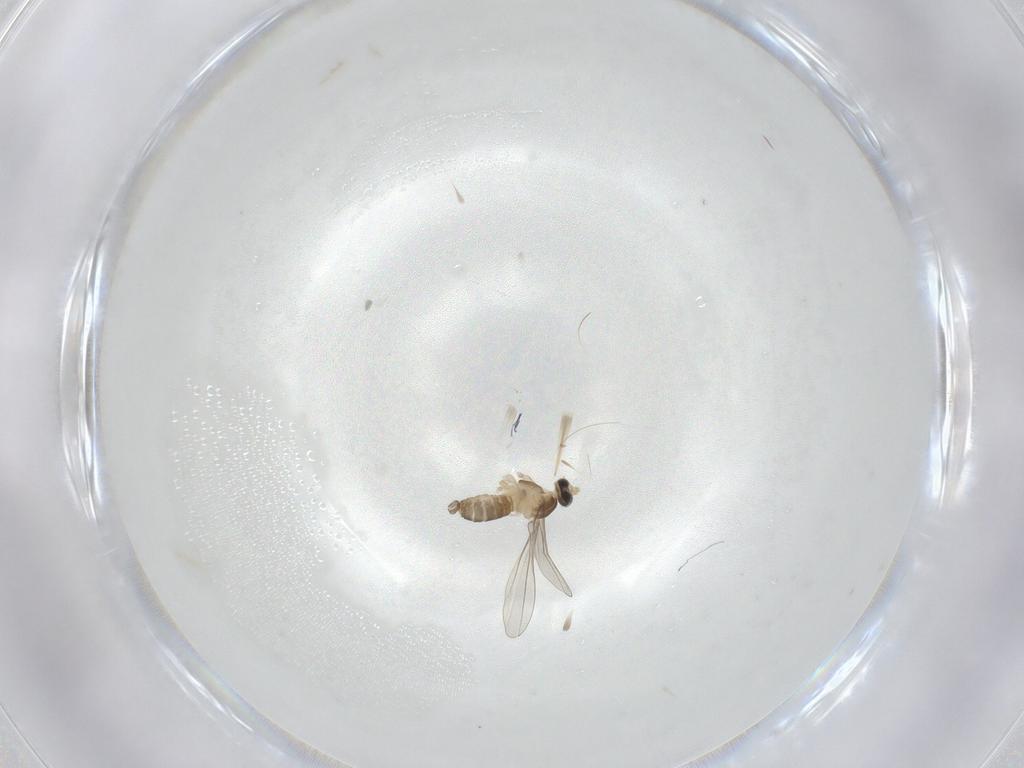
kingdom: Animalia
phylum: Arthropoda
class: Insecta
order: Diptera
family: Cecidomyiidae
